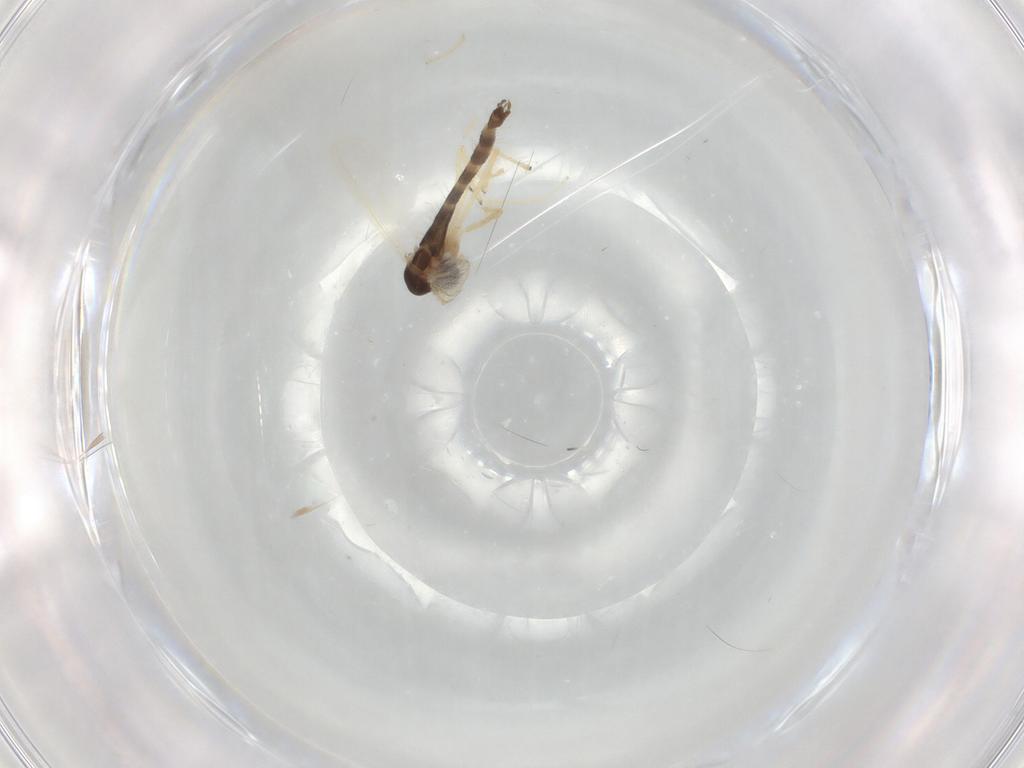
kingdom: Animalia
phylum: Arthropoda
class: Insecta
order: Diptera
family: Chironomidae
